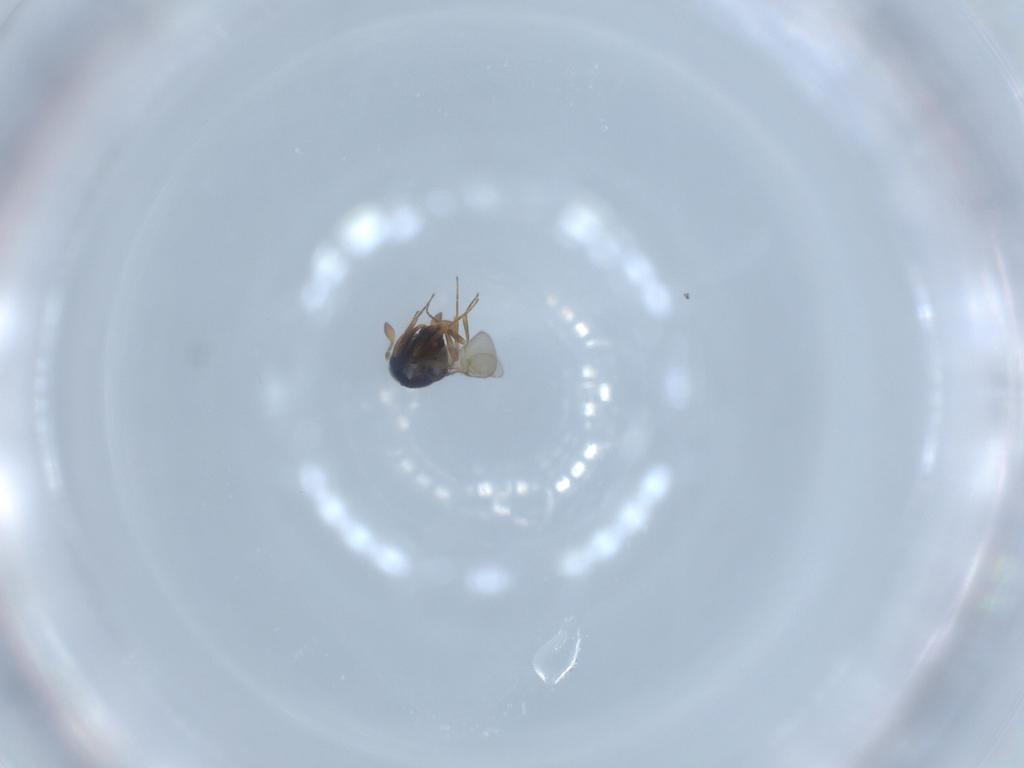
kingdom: Animalia
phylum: Arthropoda
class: Insecta
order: Hymenoptera
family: Scelionidae
